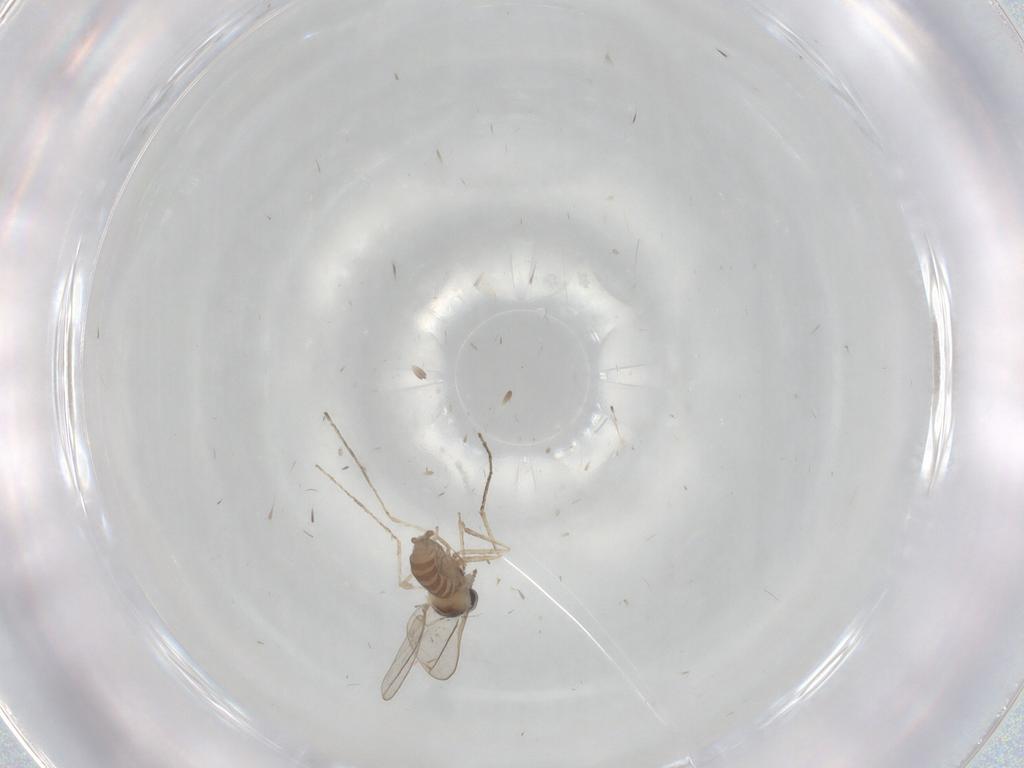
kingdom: Animalia
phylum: Arthropoda
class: Insecta
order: Diptera
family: Cecidomyiidae
